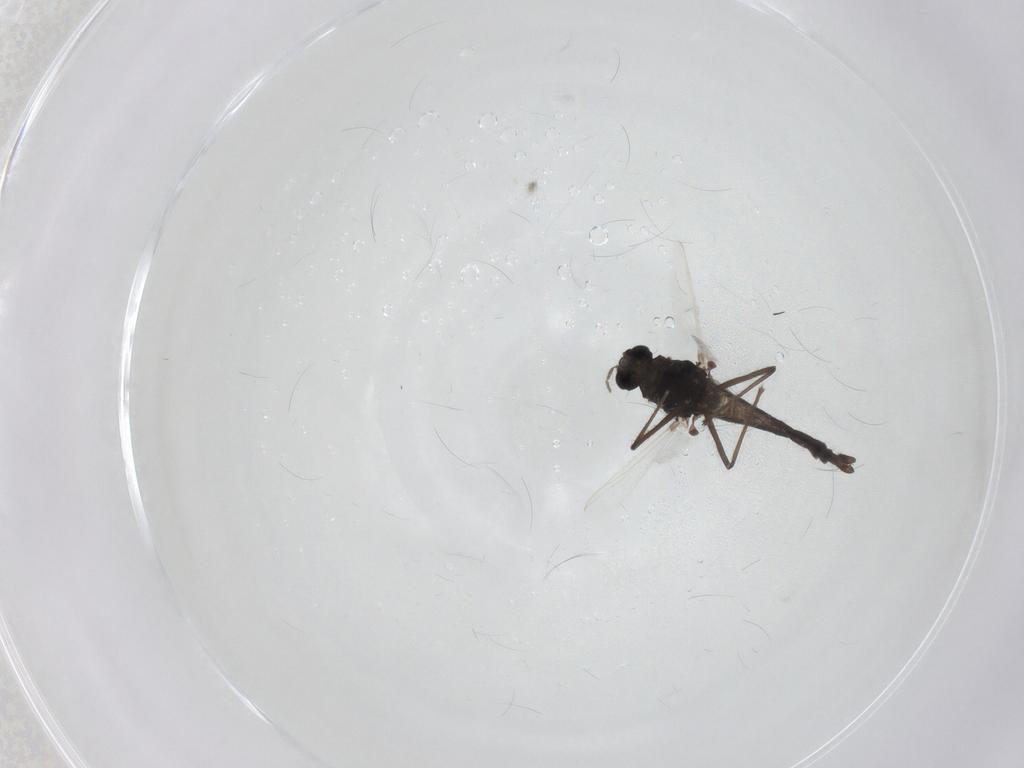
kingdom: Animalia
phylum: Arthropoda
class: Insecta
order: Diptera
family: Chironomidae
